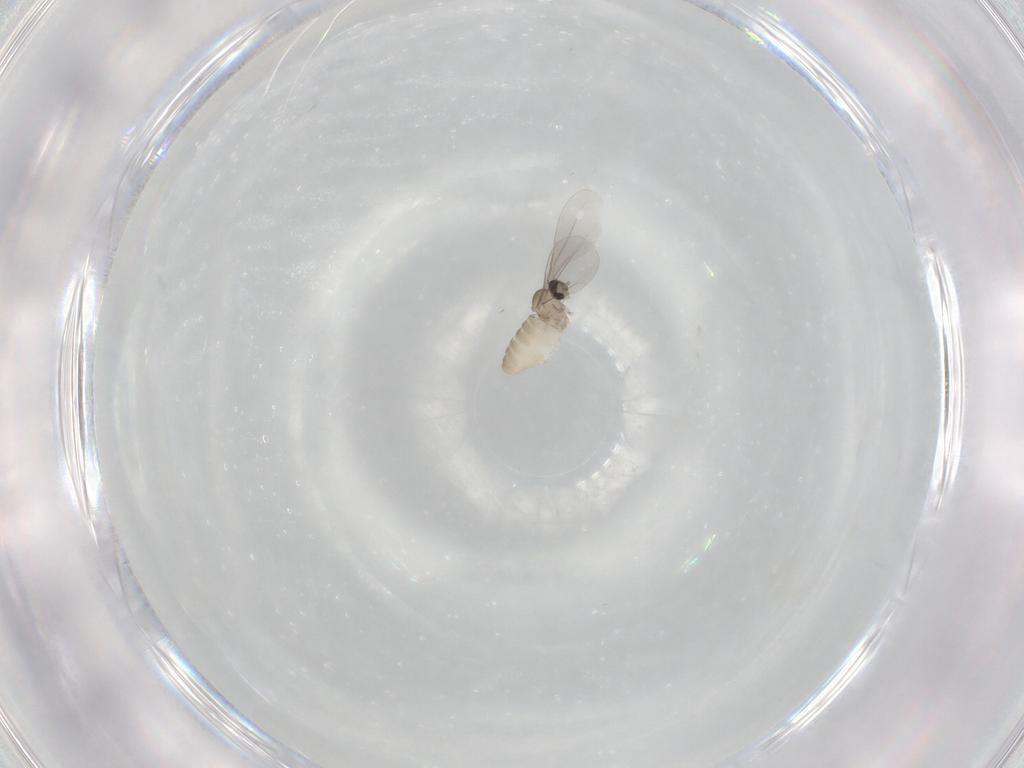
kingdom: Animalia
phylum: Arthropoda
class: Insecta
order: Diptera
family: Cecidomyiidae
